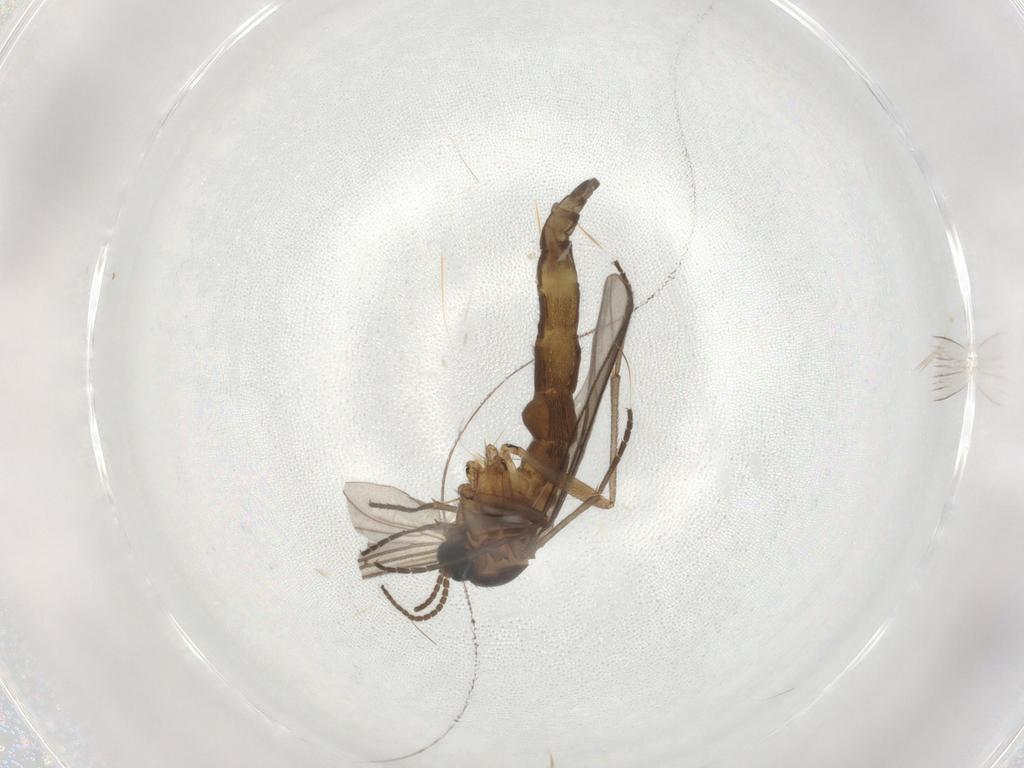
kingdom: Animalia
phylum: Arthropoda
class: Insecta
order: Diptera
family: Sciaridae
